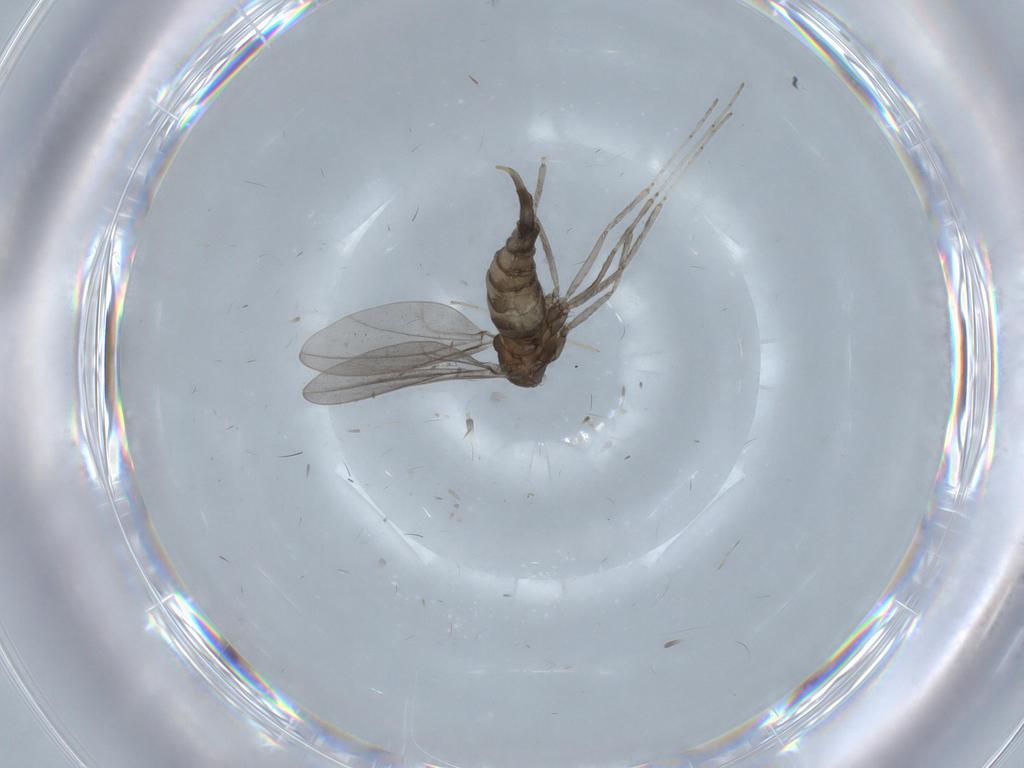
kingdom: Animalia
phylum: Arthropoda
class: Insecta
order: Diptera
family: Cecidomyiidae
